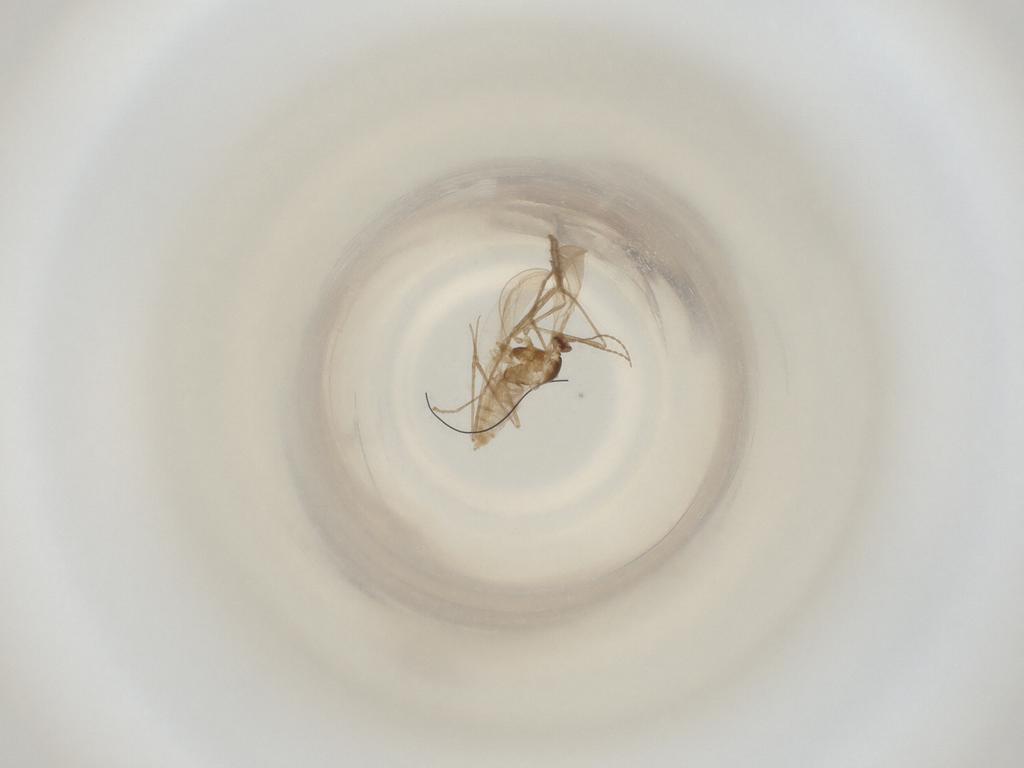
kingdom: Animalia
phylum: Arthropoda
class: Insecta
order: Diptera
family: Cecidomyiidae
